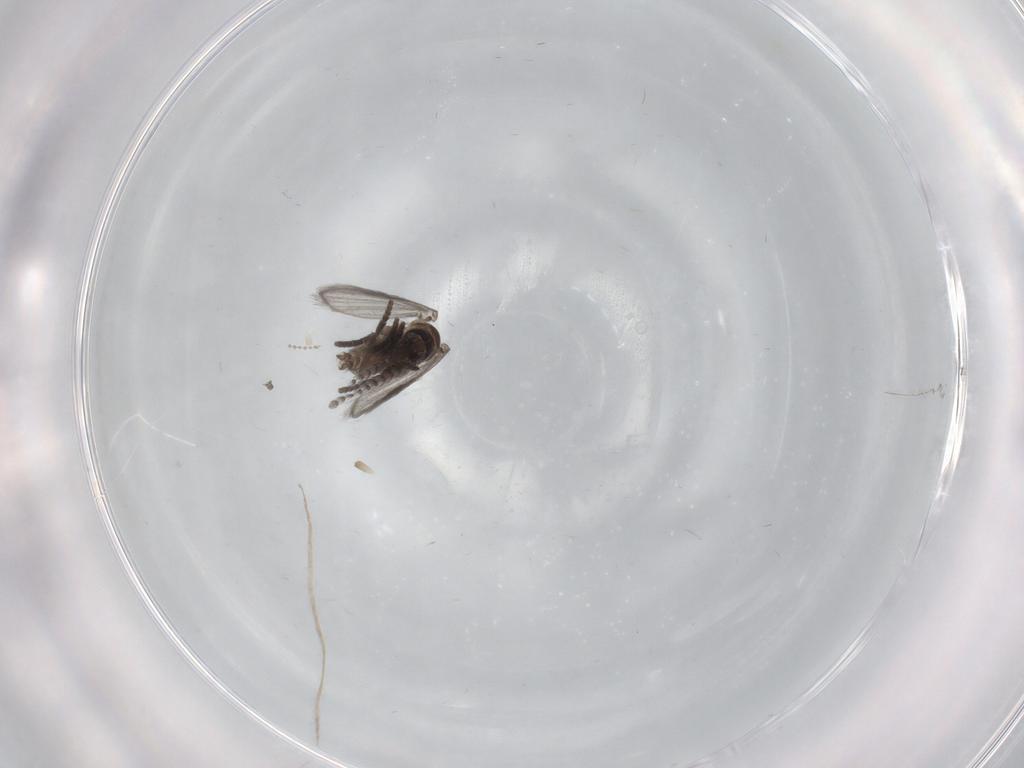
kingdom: Animalia
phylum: Arthropoda
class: Insecta
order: Diptera
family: Psychodidae
